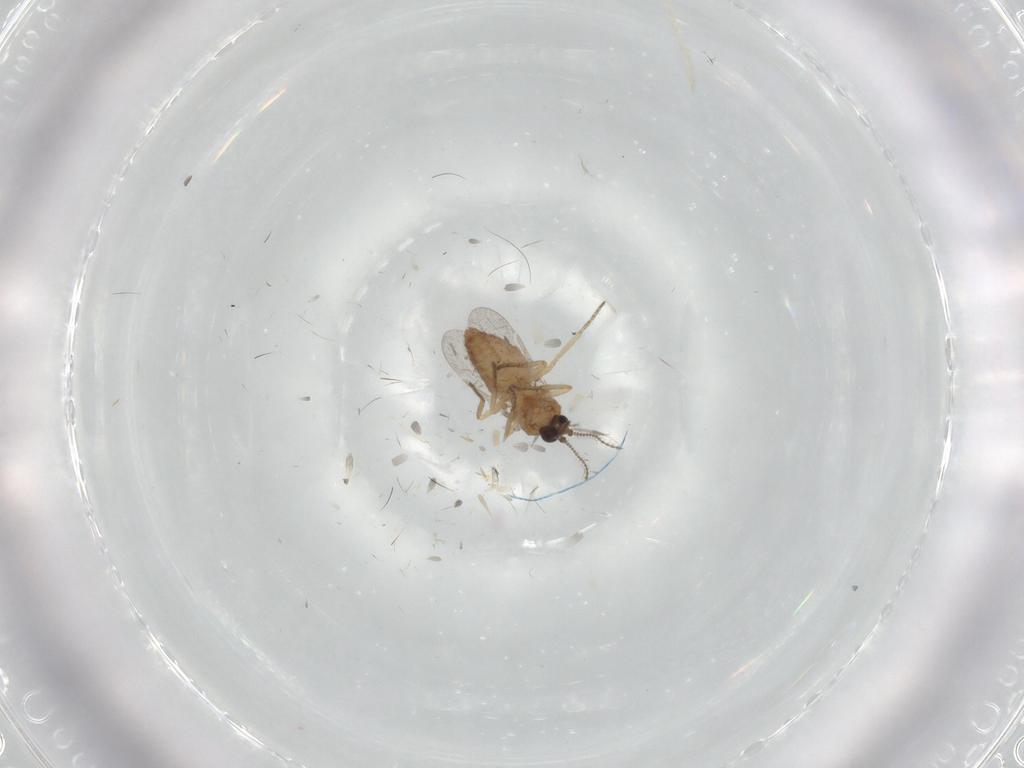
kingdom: Animalia
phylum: Arthropoda
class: Insecta
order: Diptera
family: Ceratopogonidae
